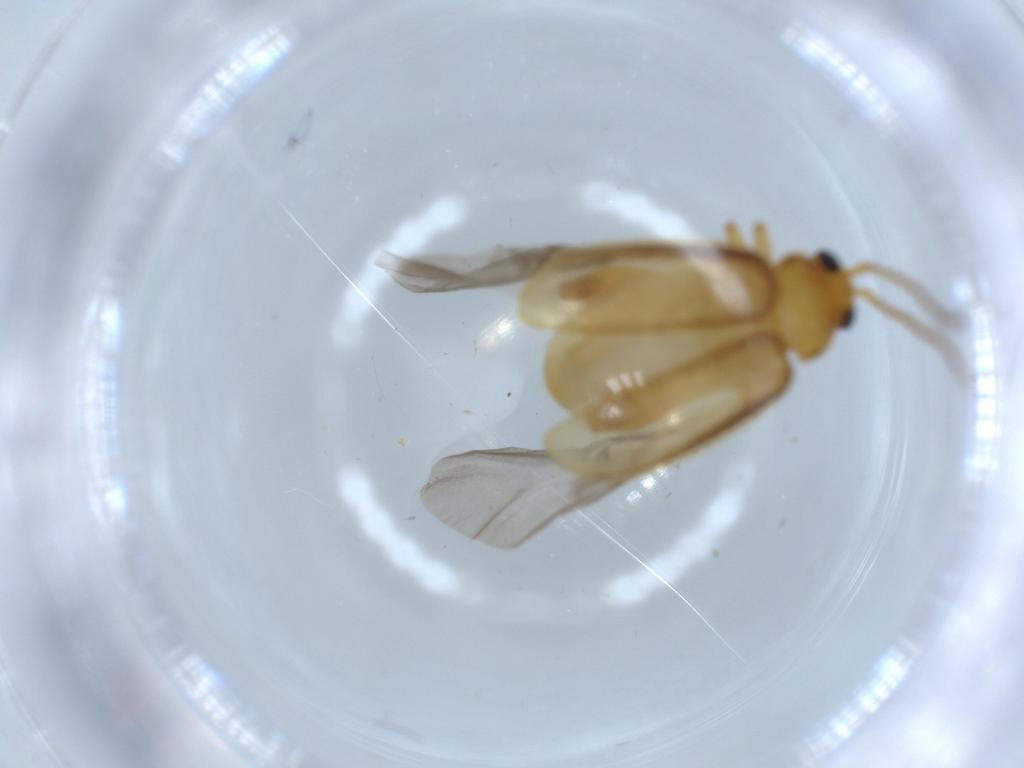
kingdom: Animalia
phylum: Arthropoda
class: Insecta
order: Coleoptera
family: Chrysomelidae
